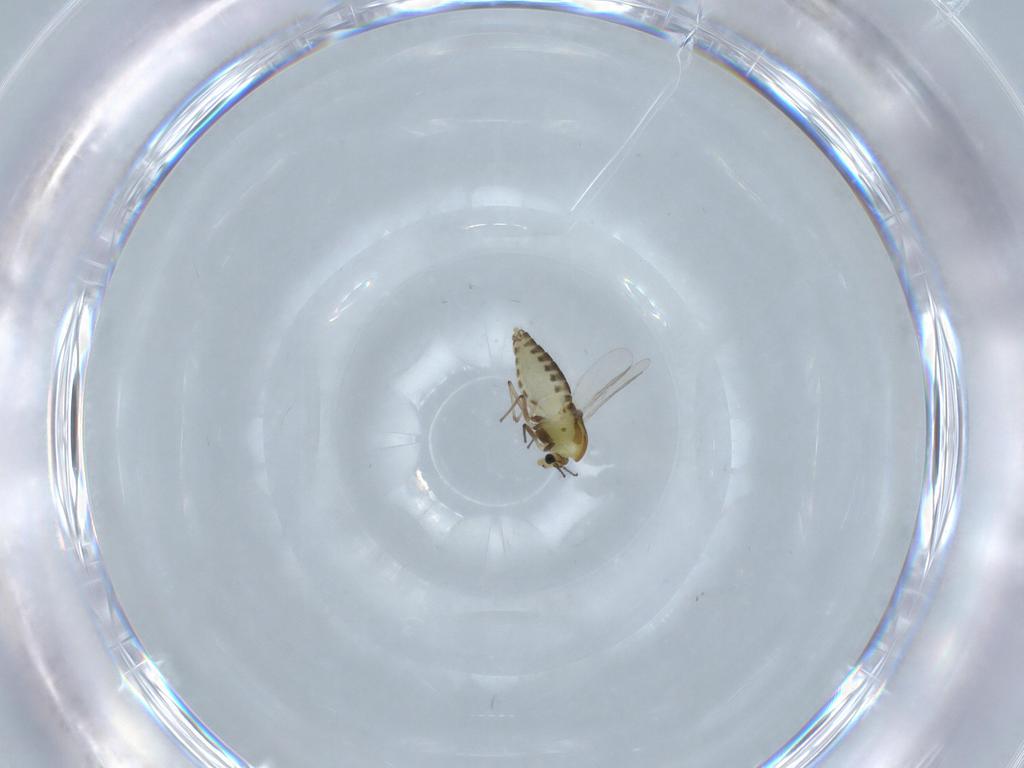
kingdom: Animalia
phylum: Arthropoda
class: Insecta
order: Diptera
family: Chironomidae
